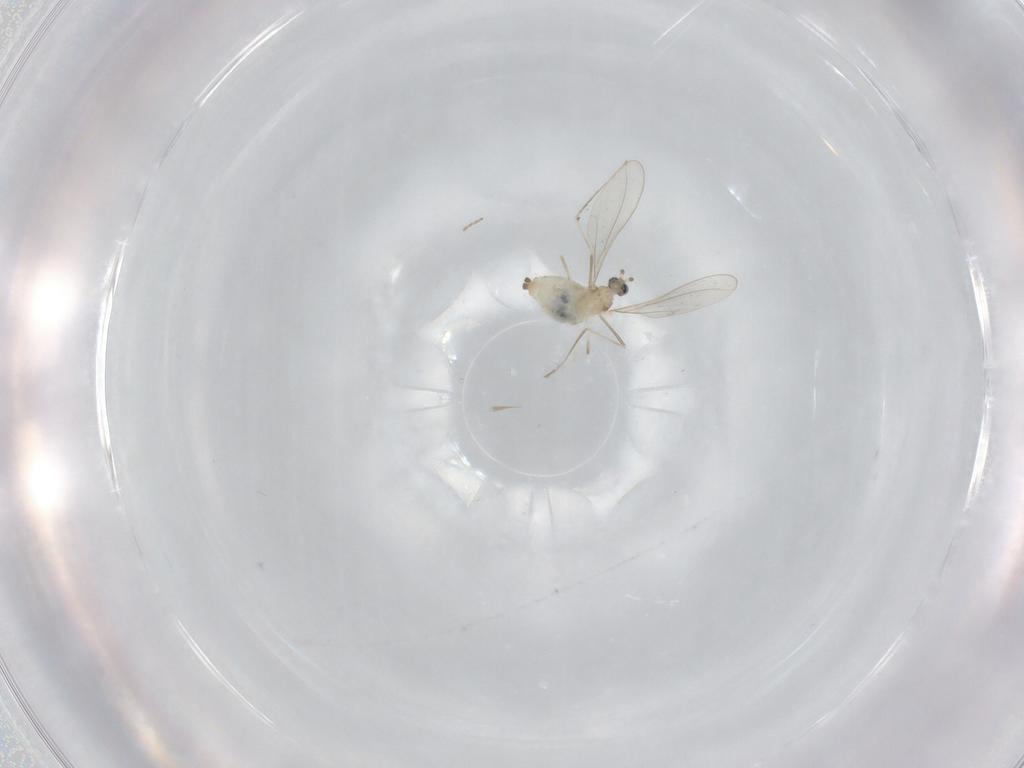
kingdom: Animalia
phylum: Arthropoda
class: Insecta
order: Diptera
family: Cecidomyiidae
